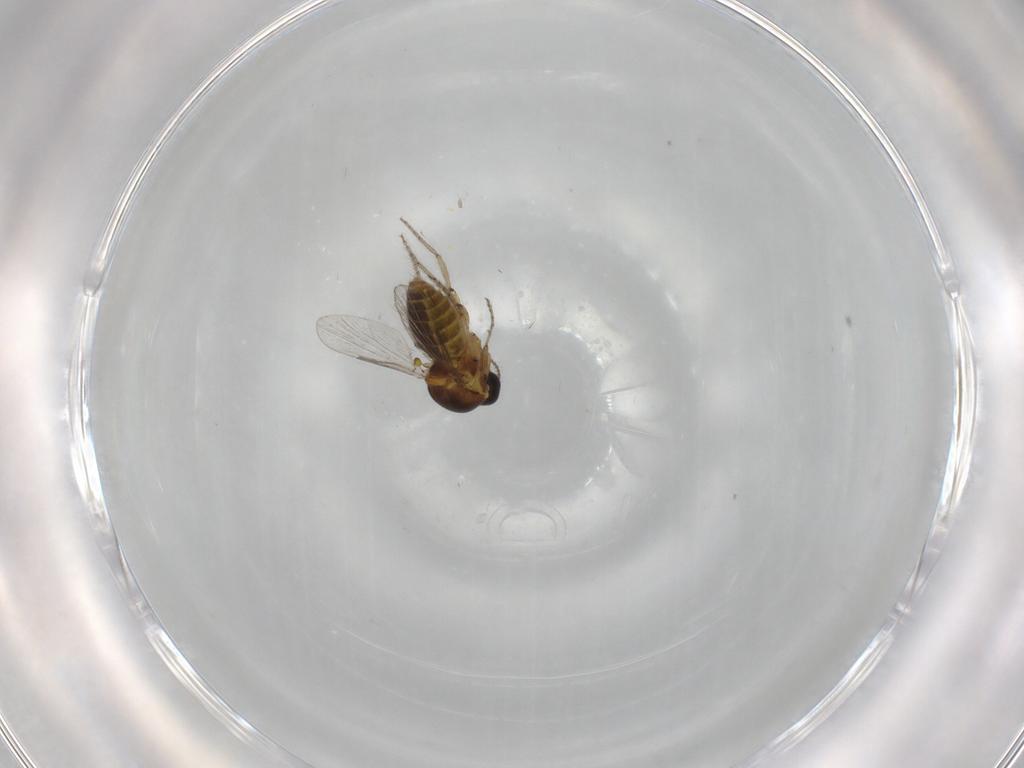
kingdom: Animalia
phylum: Arthropoda
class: Insecta
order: Diptera
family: Ceratopogonidae
